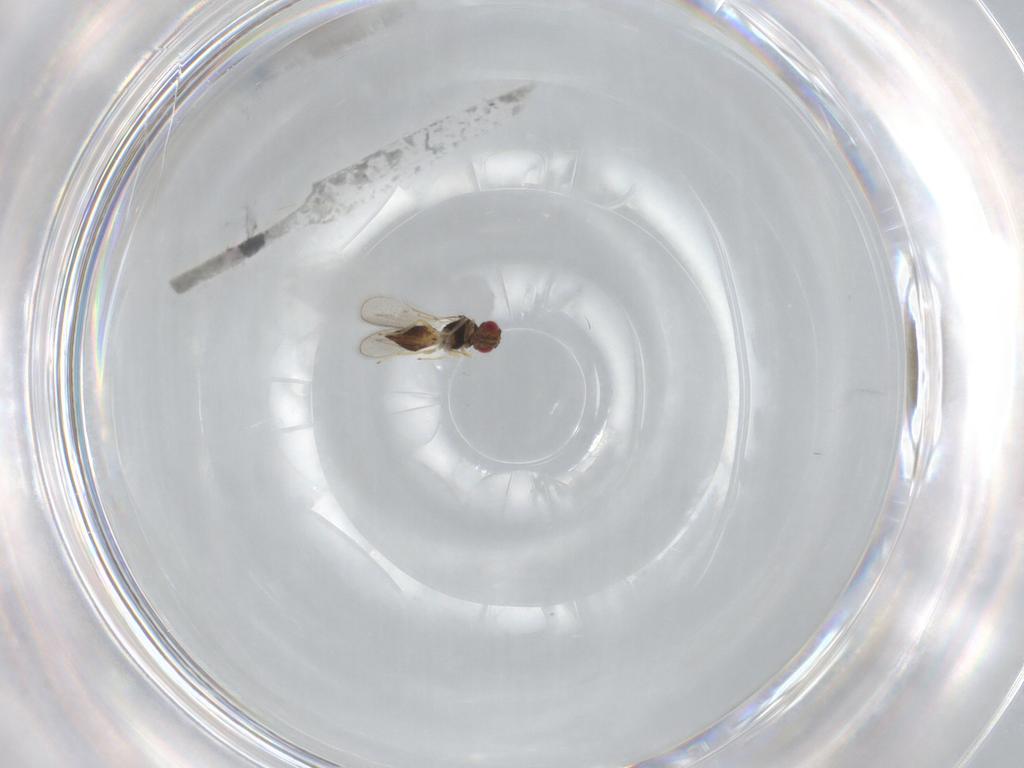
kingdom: Animalia
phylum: Arthropoda
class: Insecta
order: Hymenoptera
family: Eulophidae
